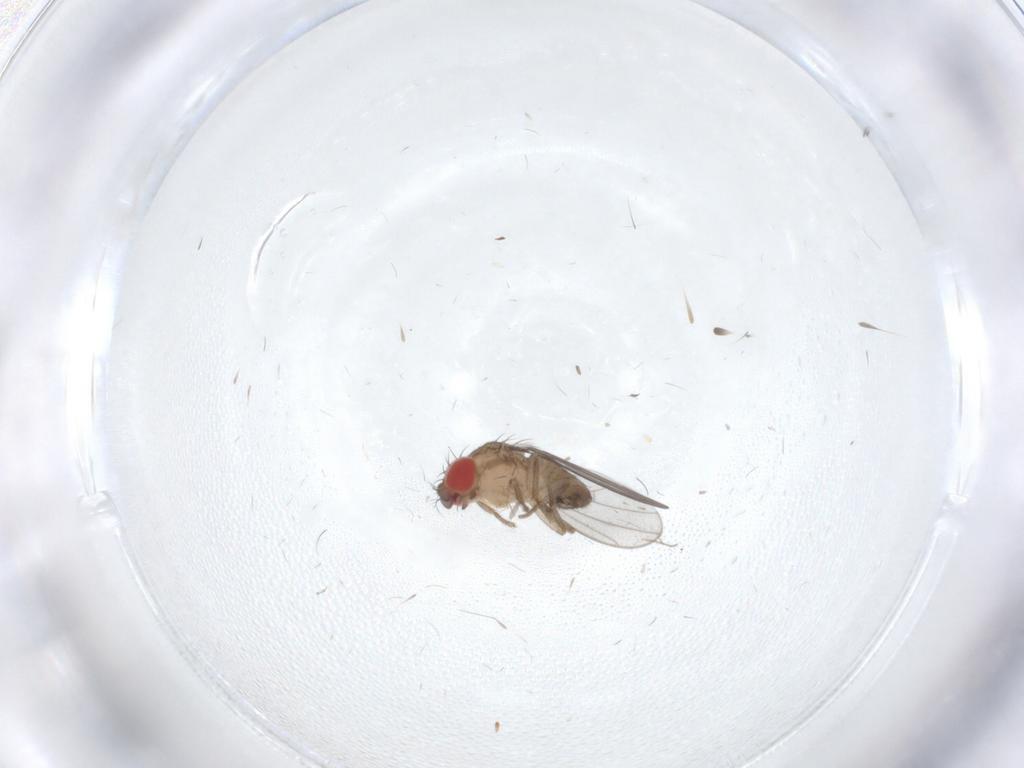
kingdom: Animalia
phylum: Arthropoda
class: Insecta
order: Diptera
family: Drosophilidae
